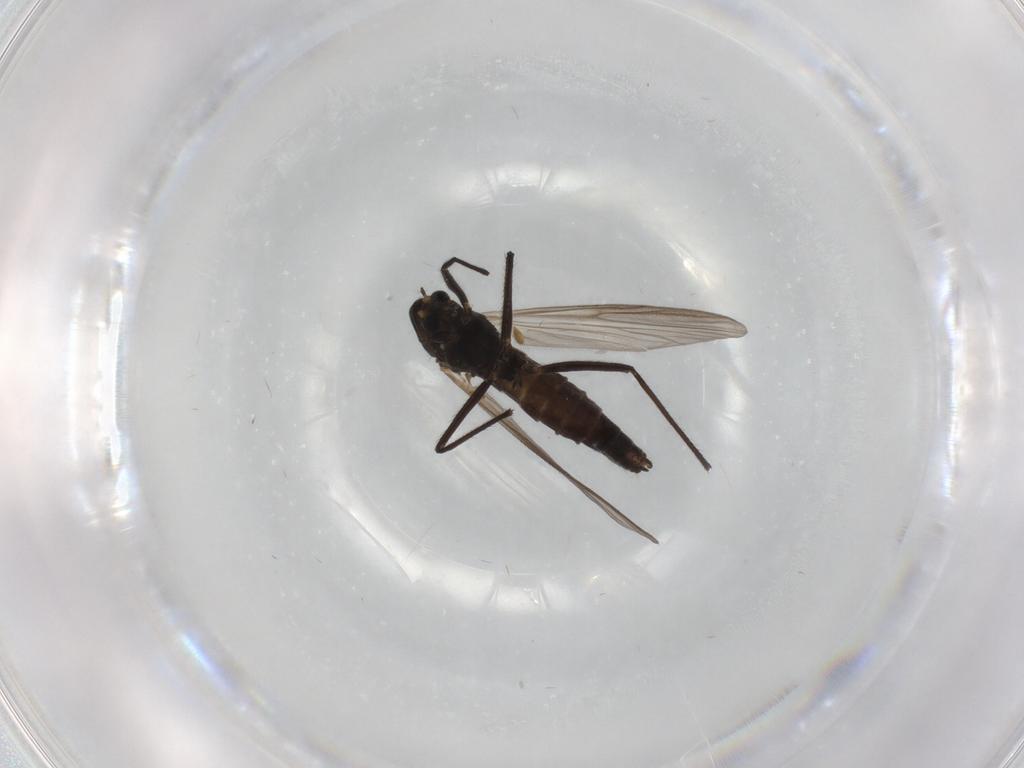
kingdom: Animalia
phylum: Arthropoda
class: Insecta
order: Diptera
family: Chironomidae
